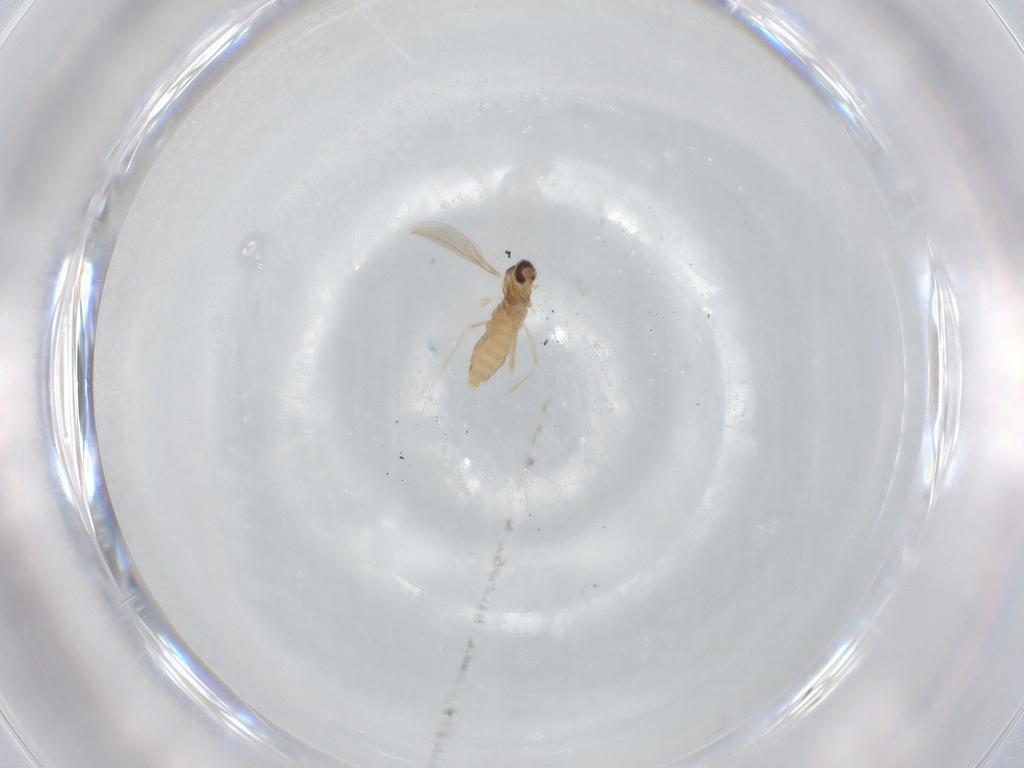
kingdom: Animalia
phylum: Arthropoda
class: Insecta
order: Diptera
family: Cecidomyiidae
